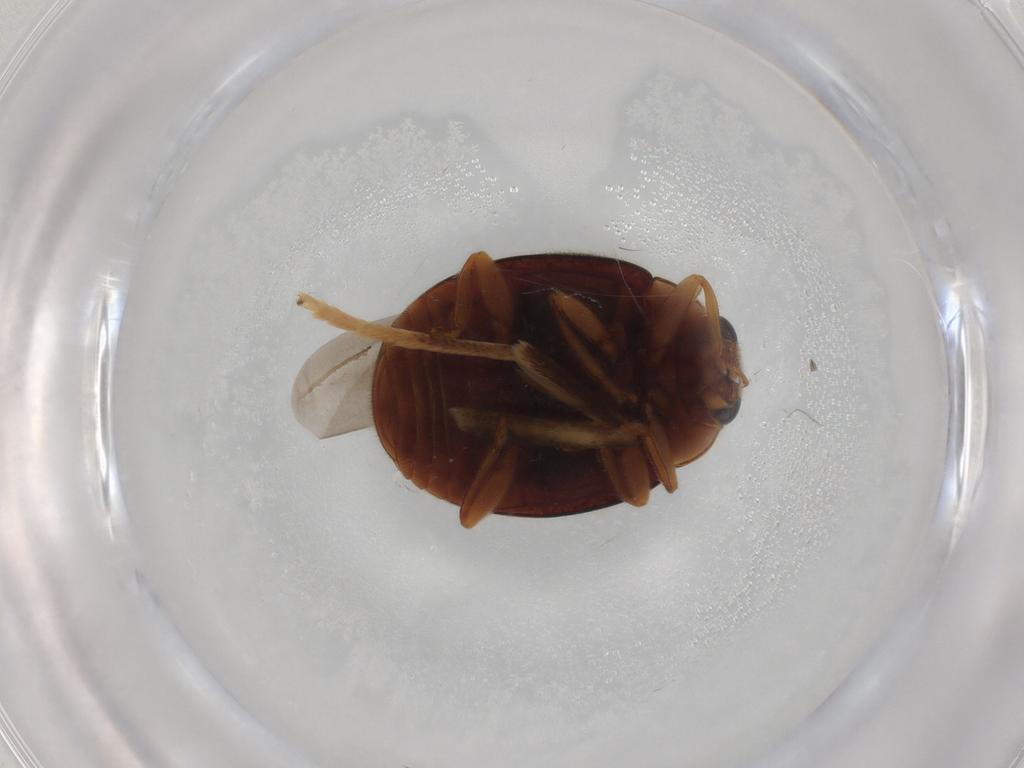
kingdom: Animalia
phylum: Arthropoda
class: Insecta
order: Coleoptera
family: Coccinellidae
